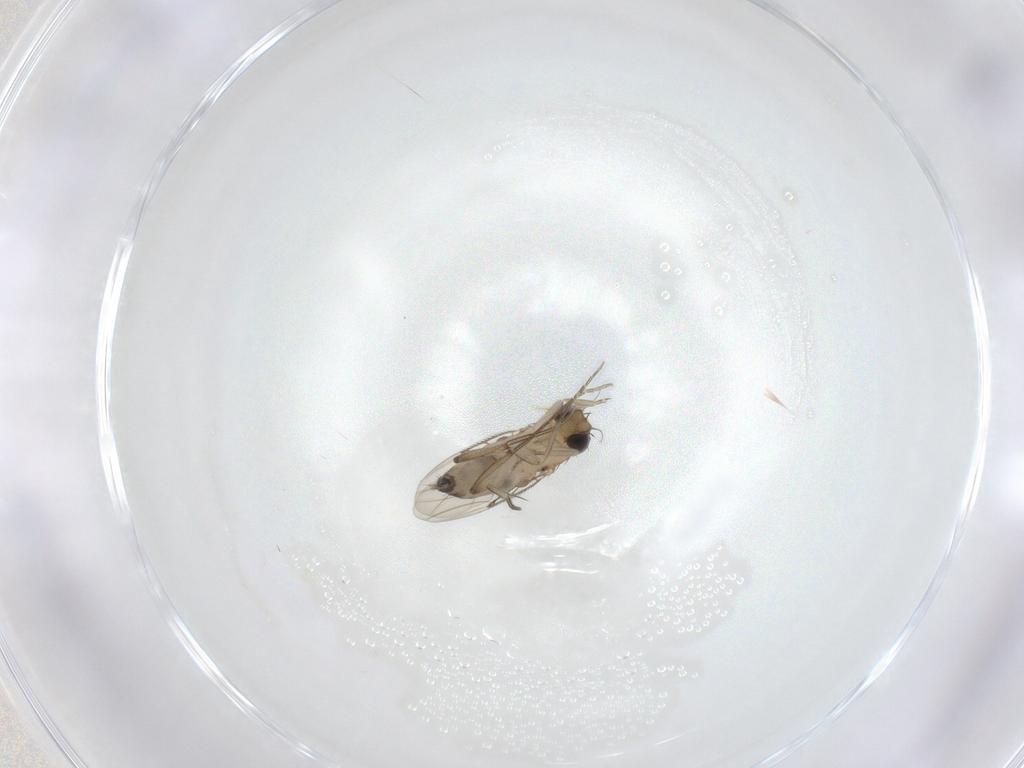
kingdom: Animalia
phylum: Arthropoda
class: Insecta
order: Diptera
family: Phoridae
